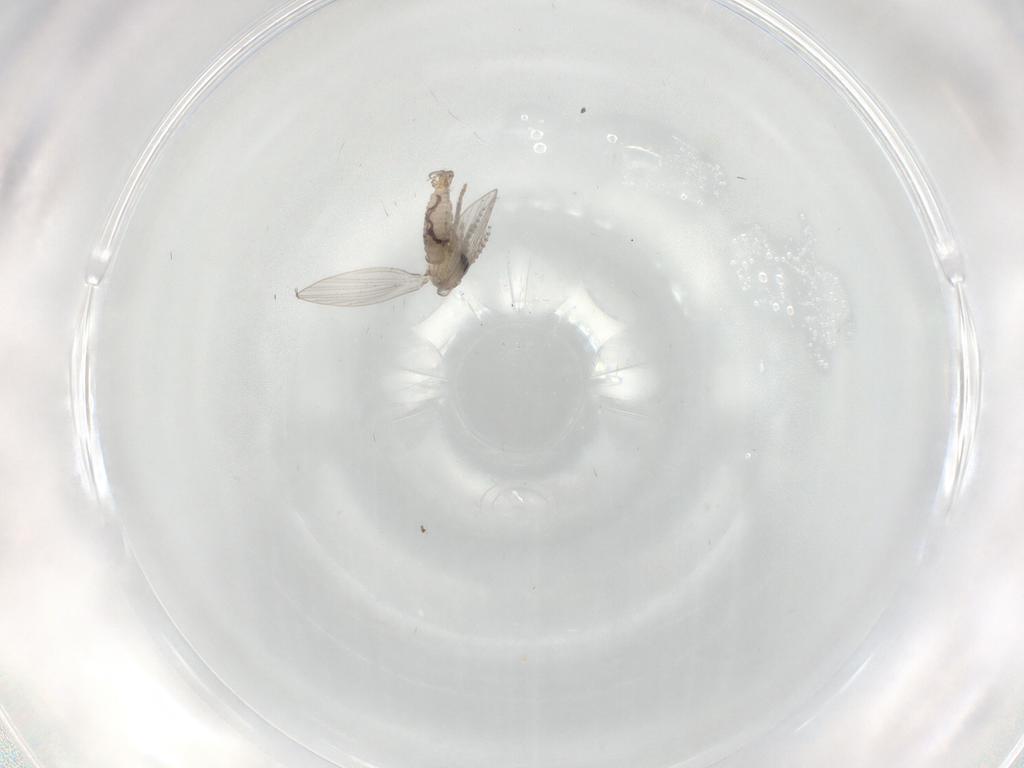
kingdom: Animalia
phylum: Arthropoda
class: Insecta
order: Diptera
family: Psychodidae
